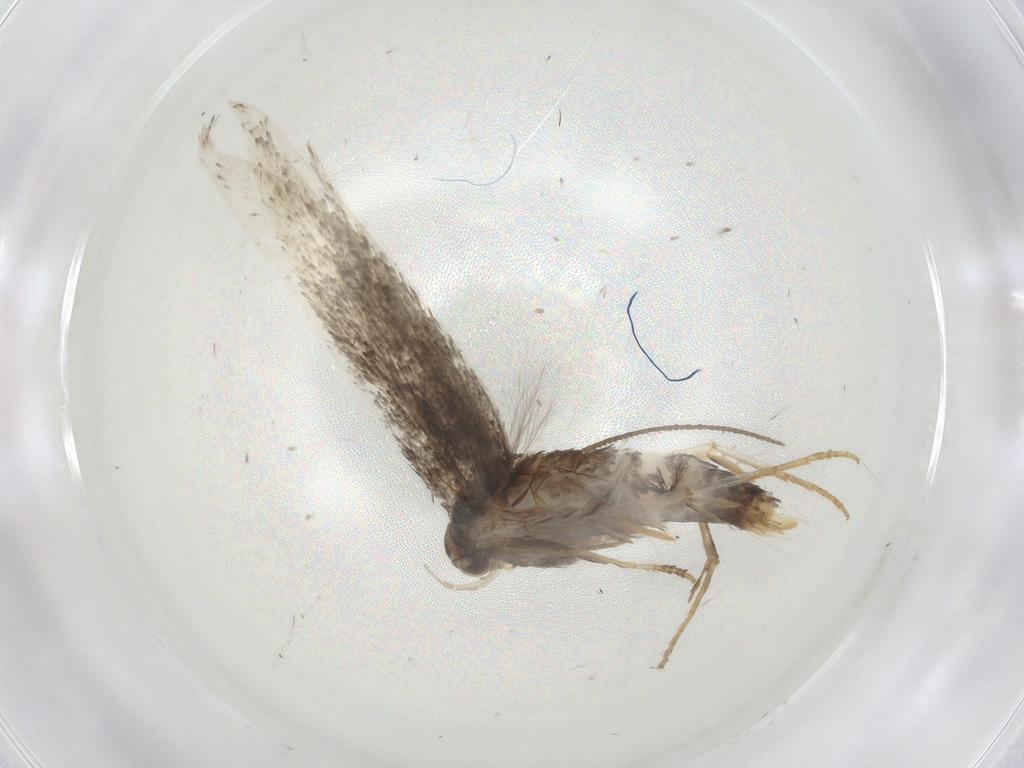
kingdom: Animalia
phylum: Arthropoda
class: Insecta
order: Lepidoptera
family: Elachistidae
